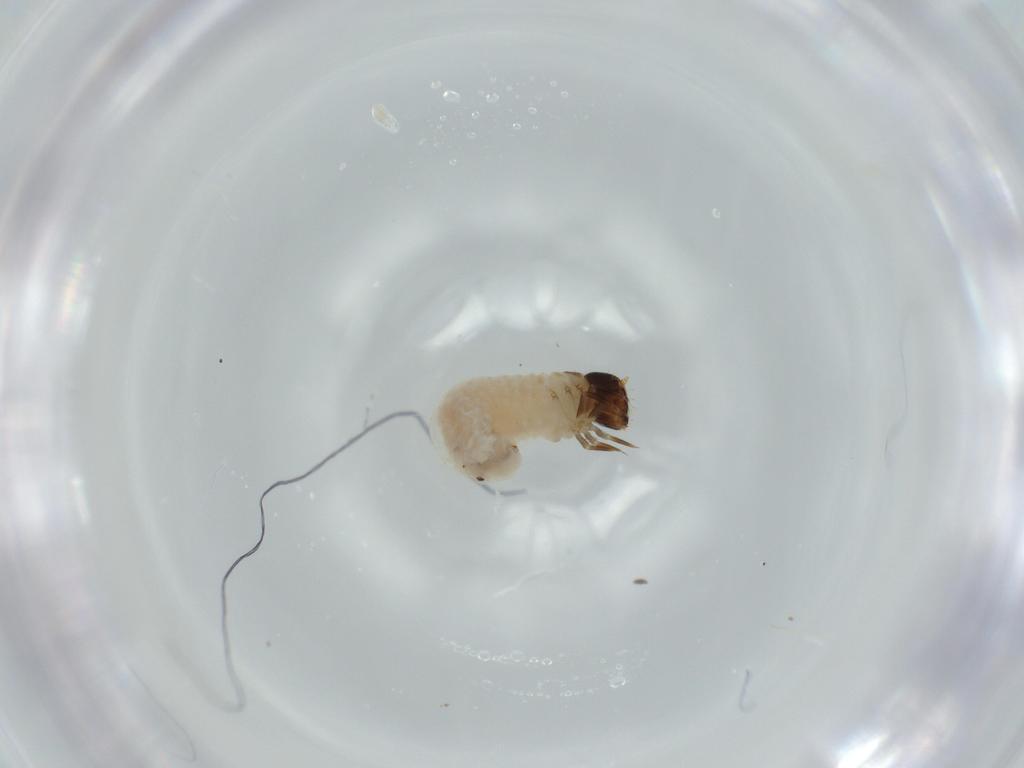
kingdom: Animalia
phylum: Arthropoda
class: Insecta
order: Coleoptera
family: Chrysomelidae
